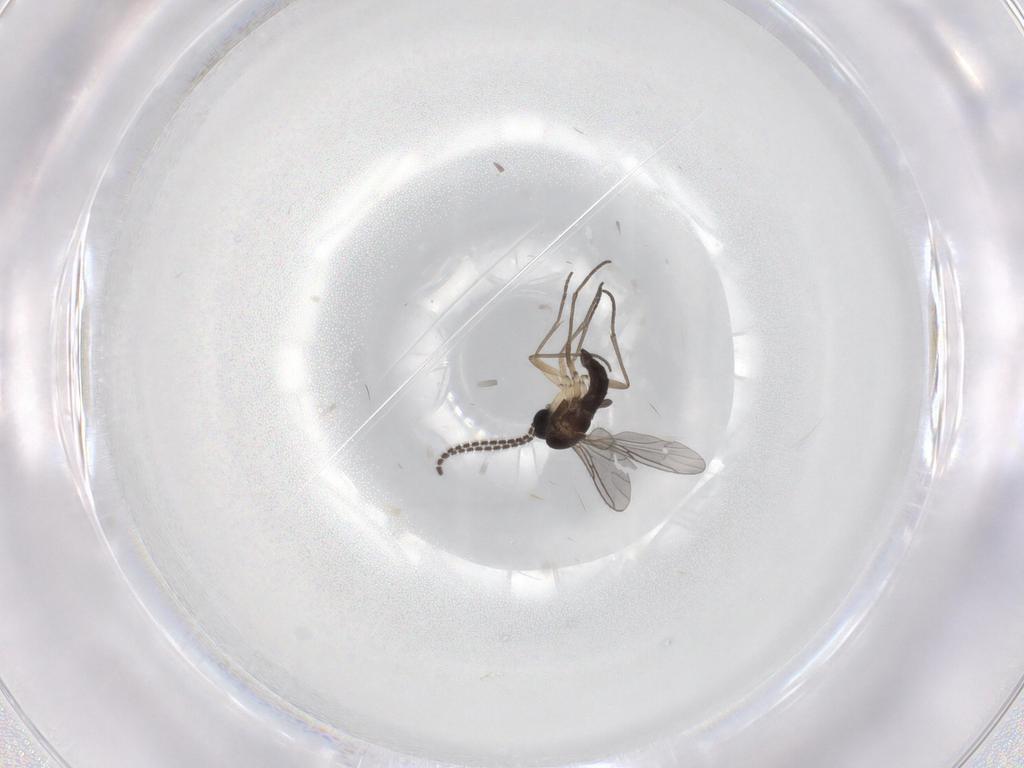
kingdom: Animalia
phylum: Arthropoda
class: Insecta
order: Diptera
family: Sciaridae
